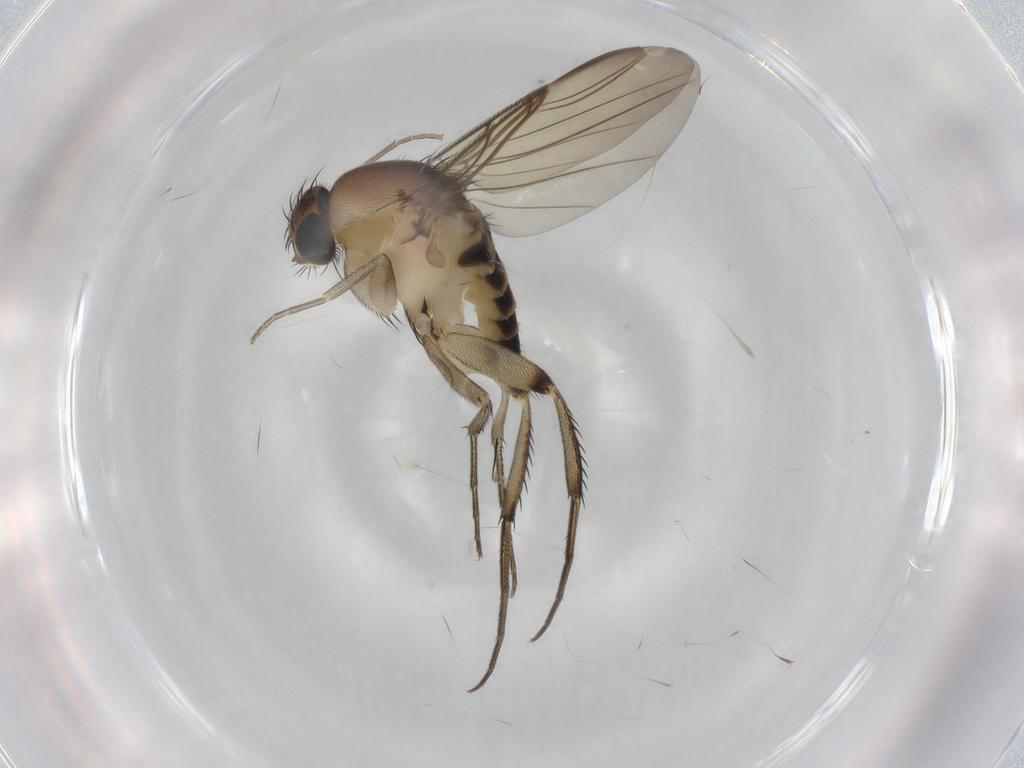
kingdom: Animalia
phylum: Arthropoda
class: Insecta
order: Diptera
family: Phoridae
